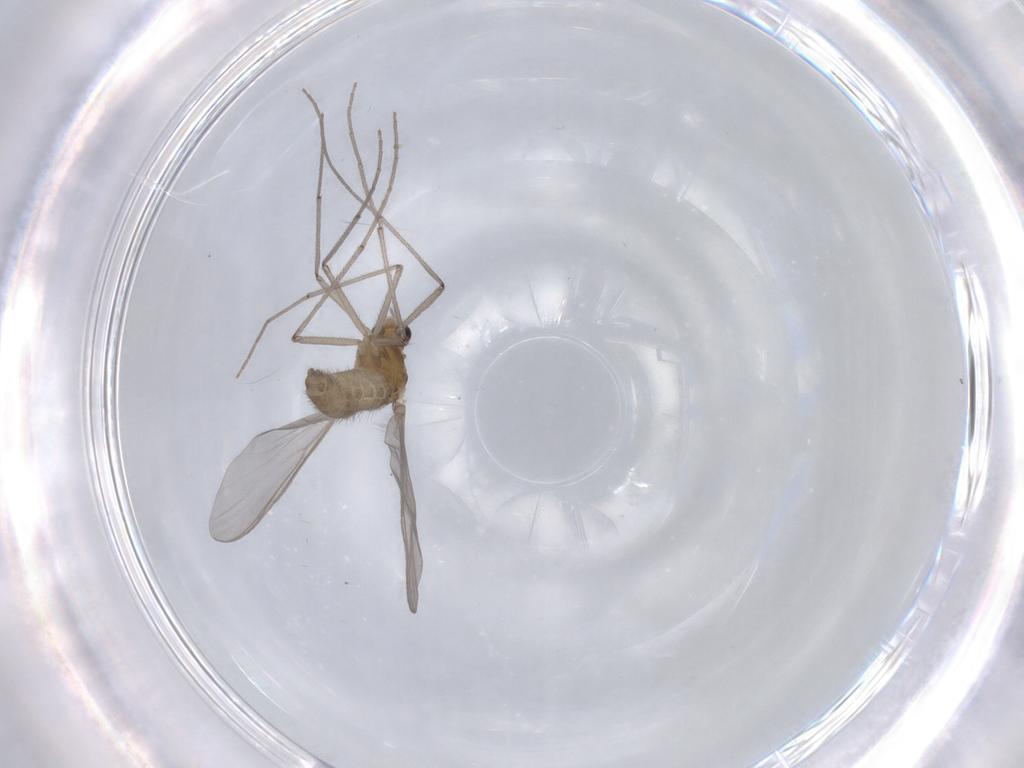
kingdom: Animalia
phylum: Arthropoda
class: Insecta
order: Diptera
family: Chironomidae
